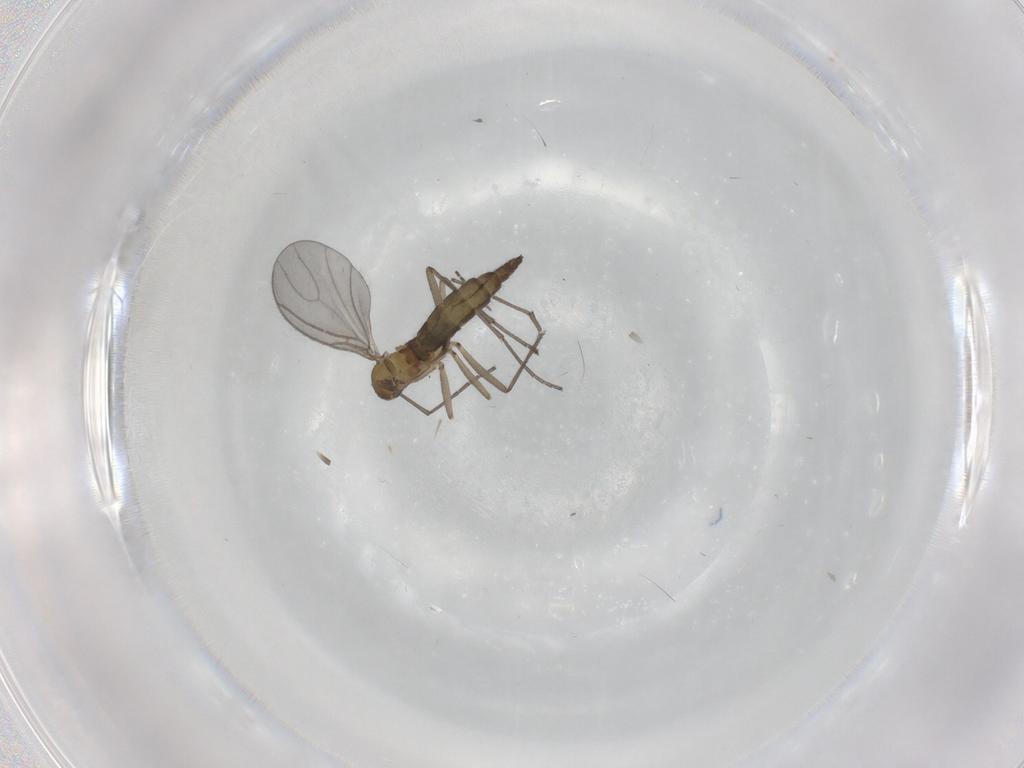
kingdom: Animalia
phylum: Arthropoda
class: Insecta
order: Diptera
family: Sciaridae
